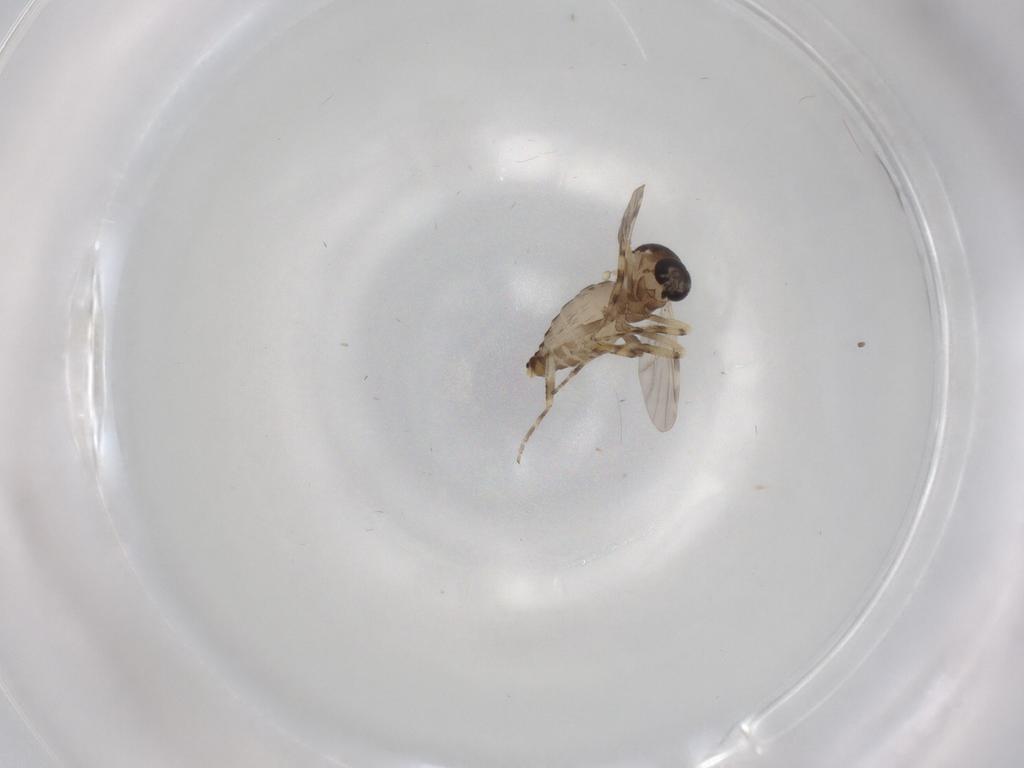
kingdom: Animalia
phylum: Arthropoda
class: Insecta
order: Diptera
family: Ceratopogonidae
